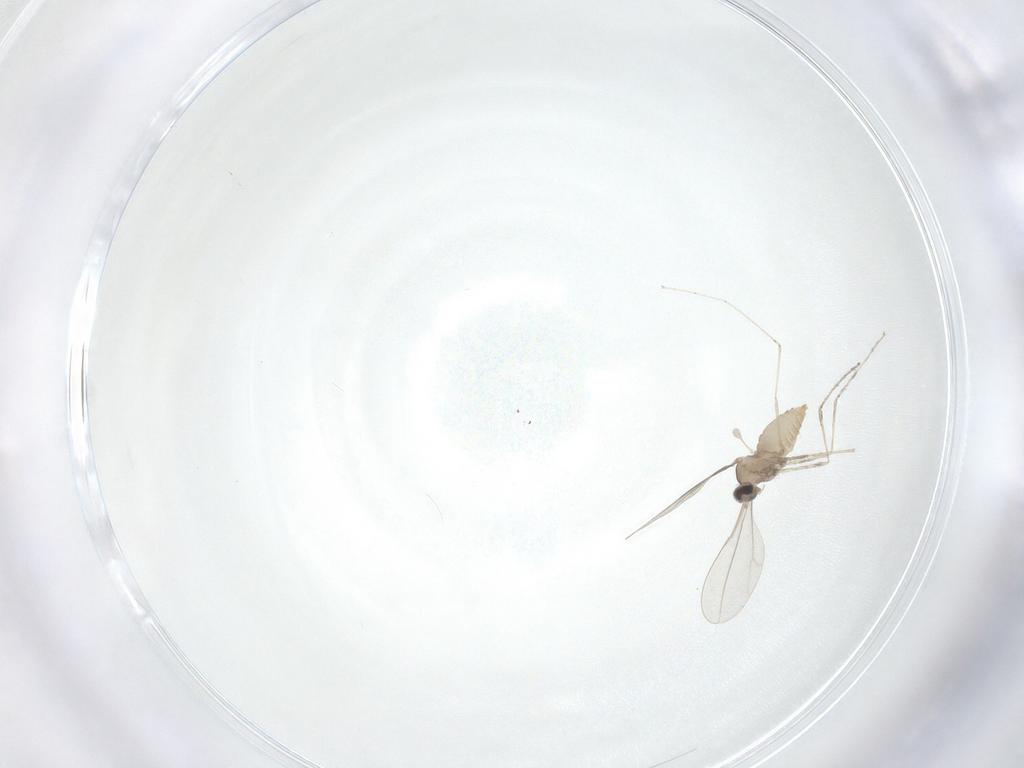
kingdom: Animalia
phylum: Arthropoda
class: Insecta
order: Diptera
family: Cecidomyiidae
